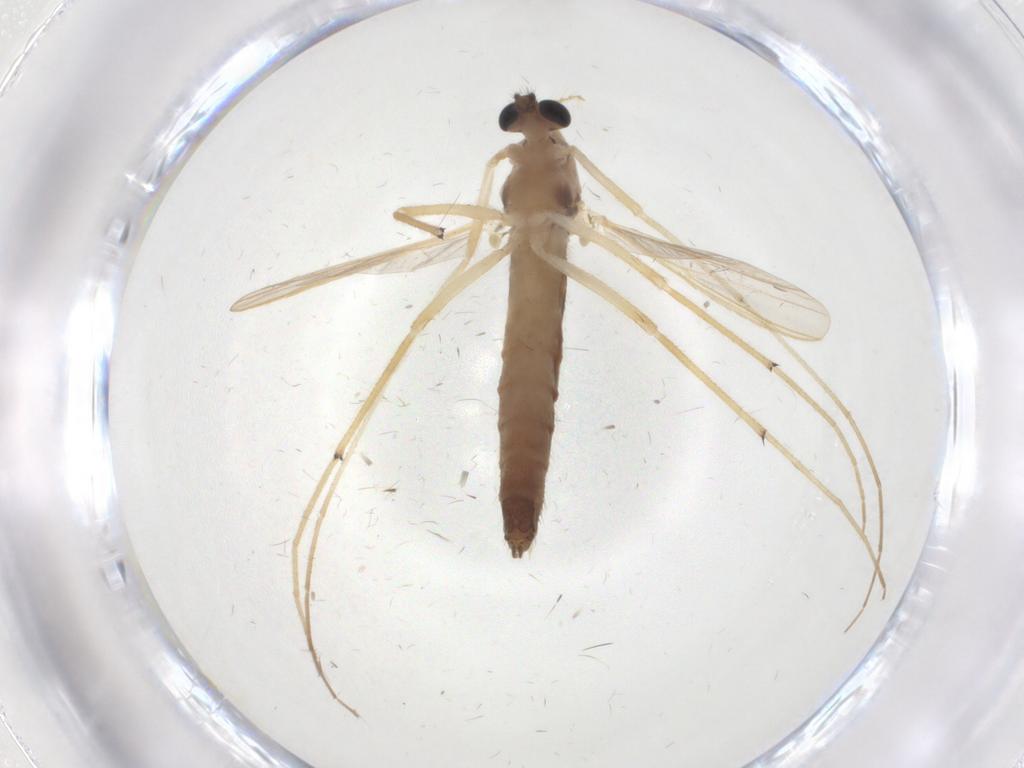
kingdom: Animalia
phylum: Arthropoda
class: Insecta
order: Diptera
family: Chironomidae
